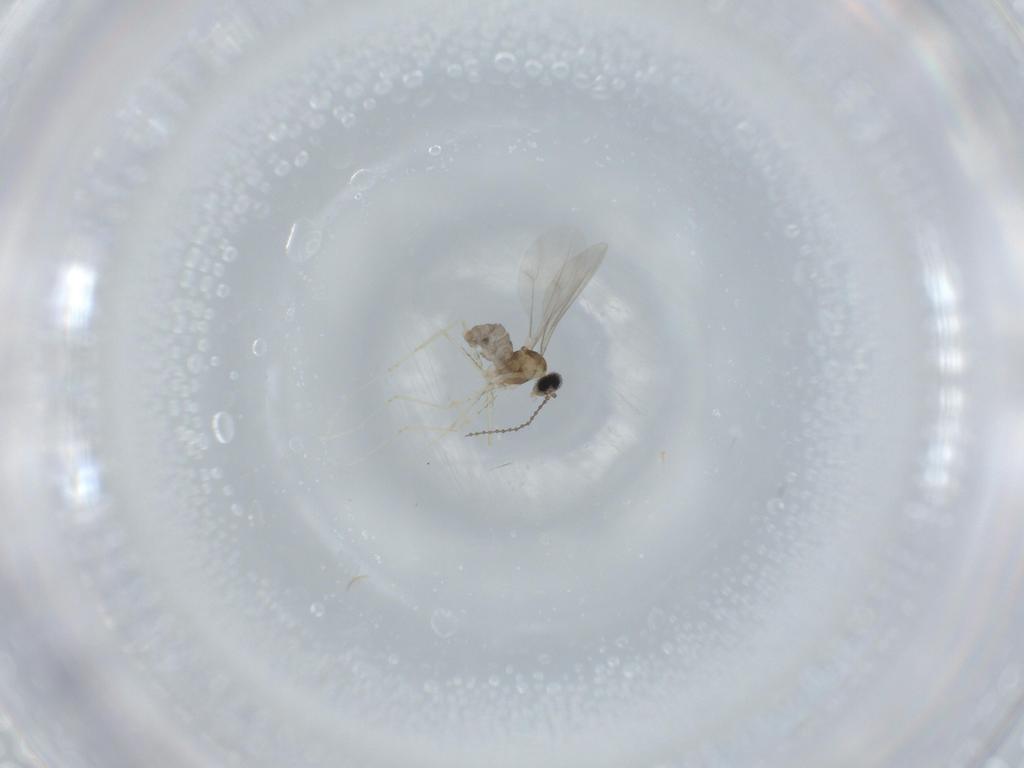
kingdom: Animalia
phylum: Arthropoda
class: Insecta
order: Diptera
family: Cecidomyiidae
